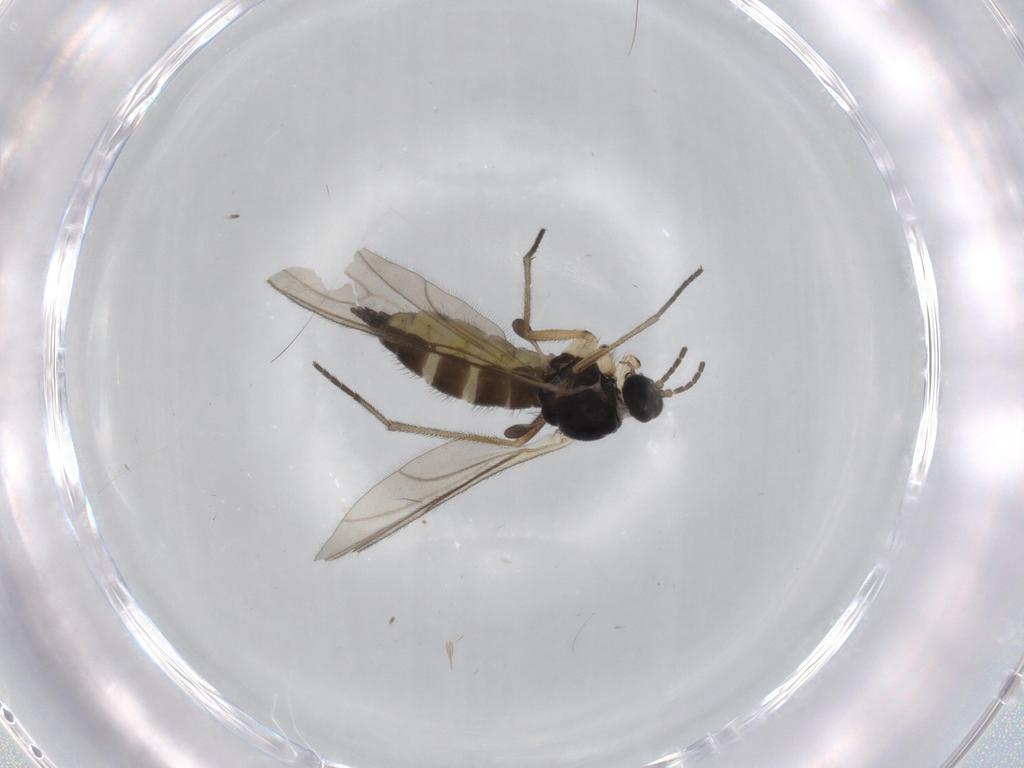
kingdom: Animalia
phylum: Arthropoda
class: Insecta
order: Diptera
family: Sciaridae
